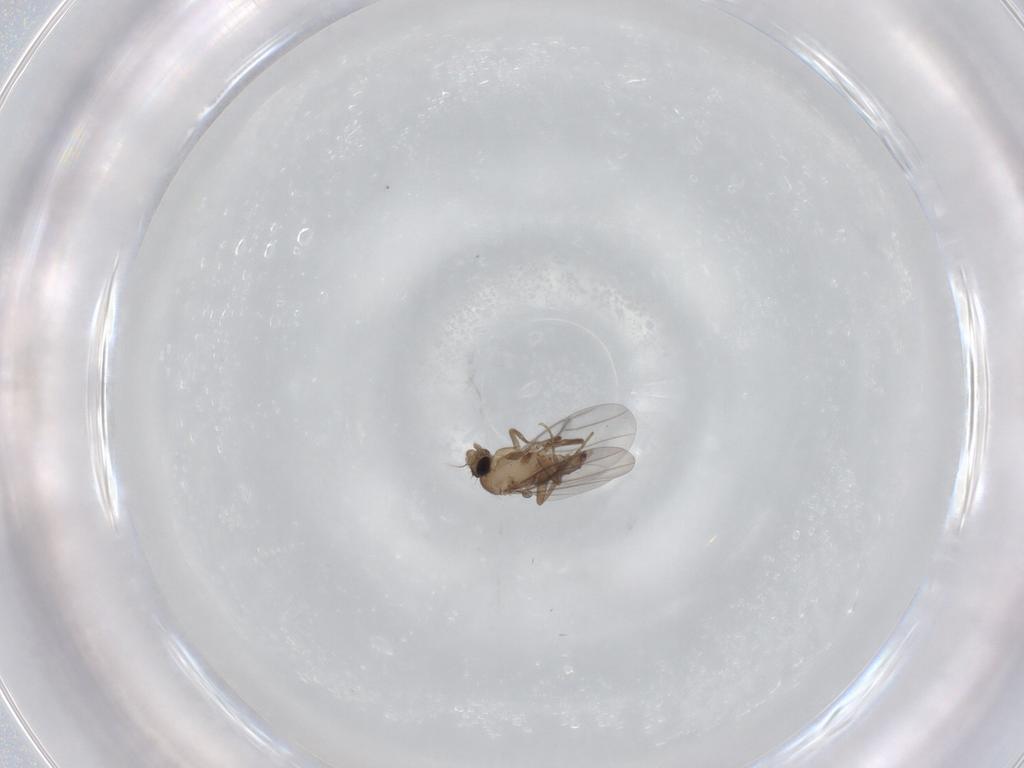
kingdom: Animalia
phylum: Arthropoda
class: Insecta
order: Diptera
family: Cecidomyiidae
